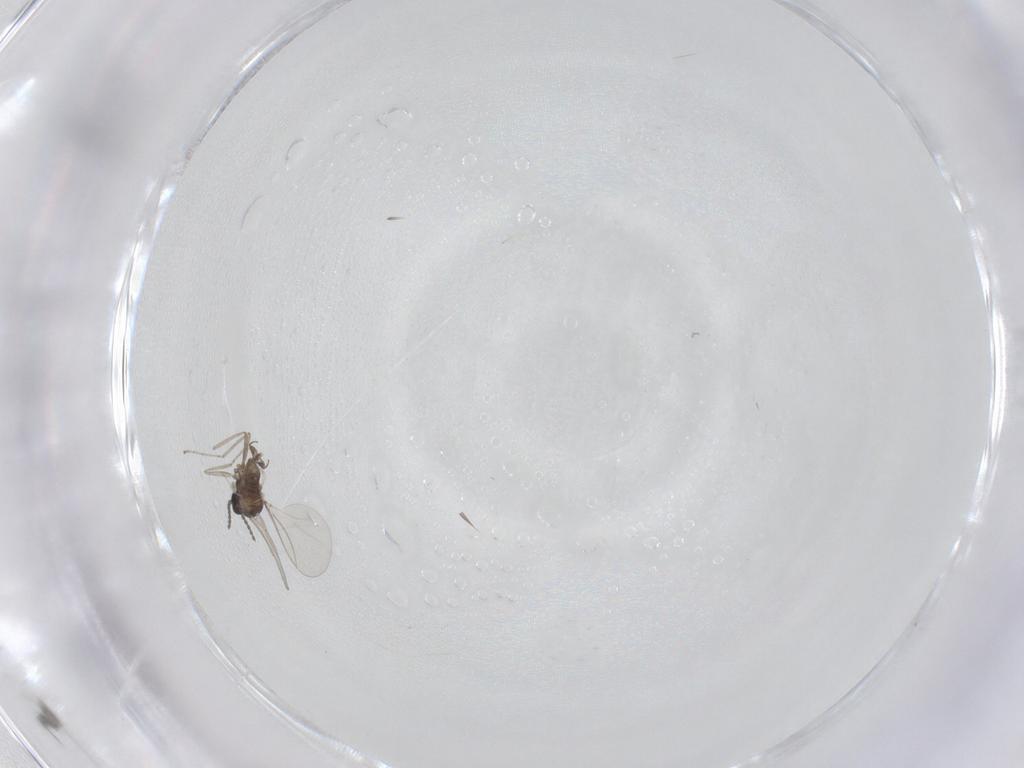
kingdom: Animalia
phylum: Arthropoda
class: Insecta
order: Diptera
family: Cecidomyiidae
